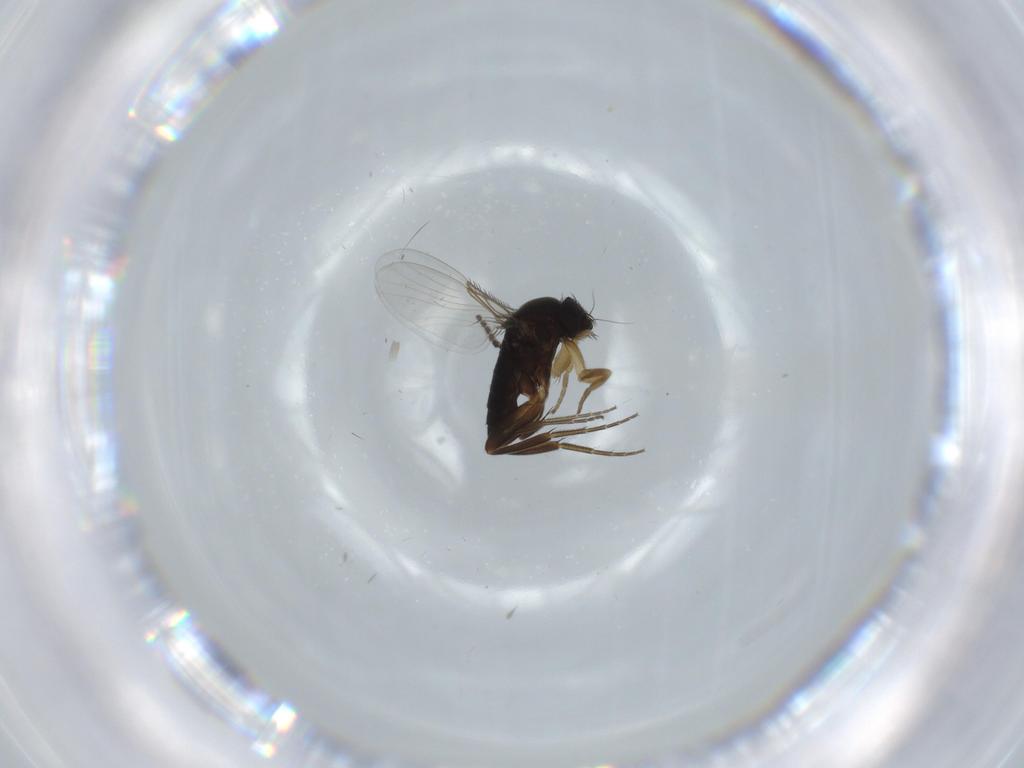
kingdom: Animalia
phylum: Arthropoda
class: Insecta
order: Diptera
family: Phoridae
